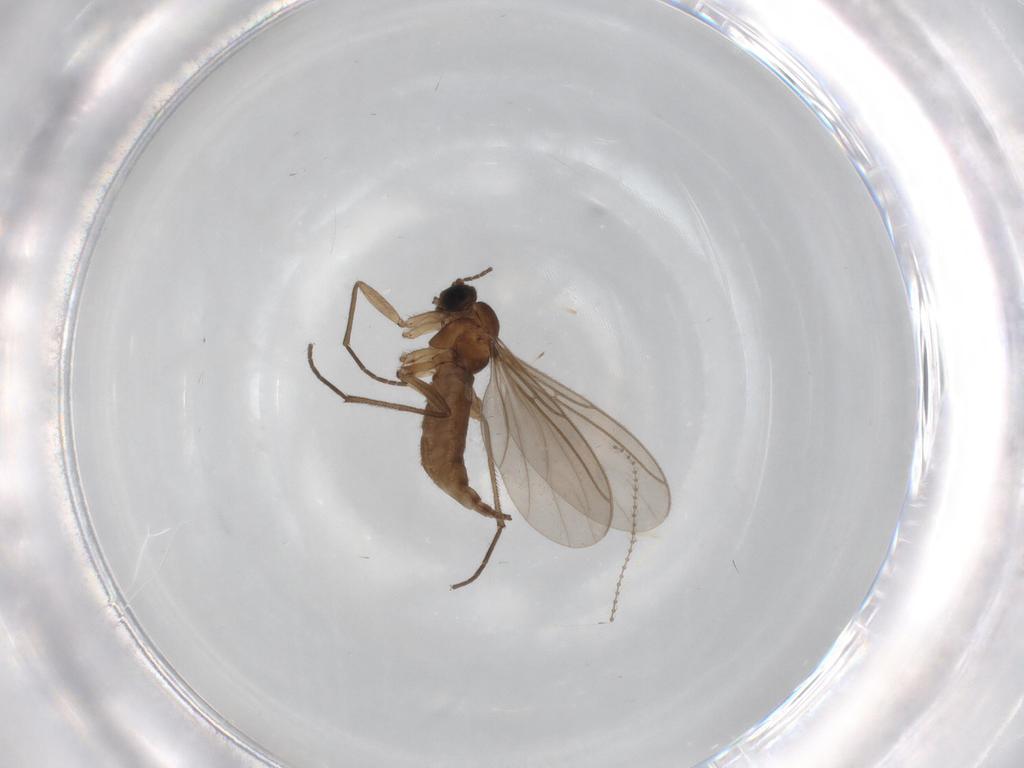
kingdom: Animalia
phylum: Arthropoda
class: Insecta
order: Diptera
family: Sciaridae
